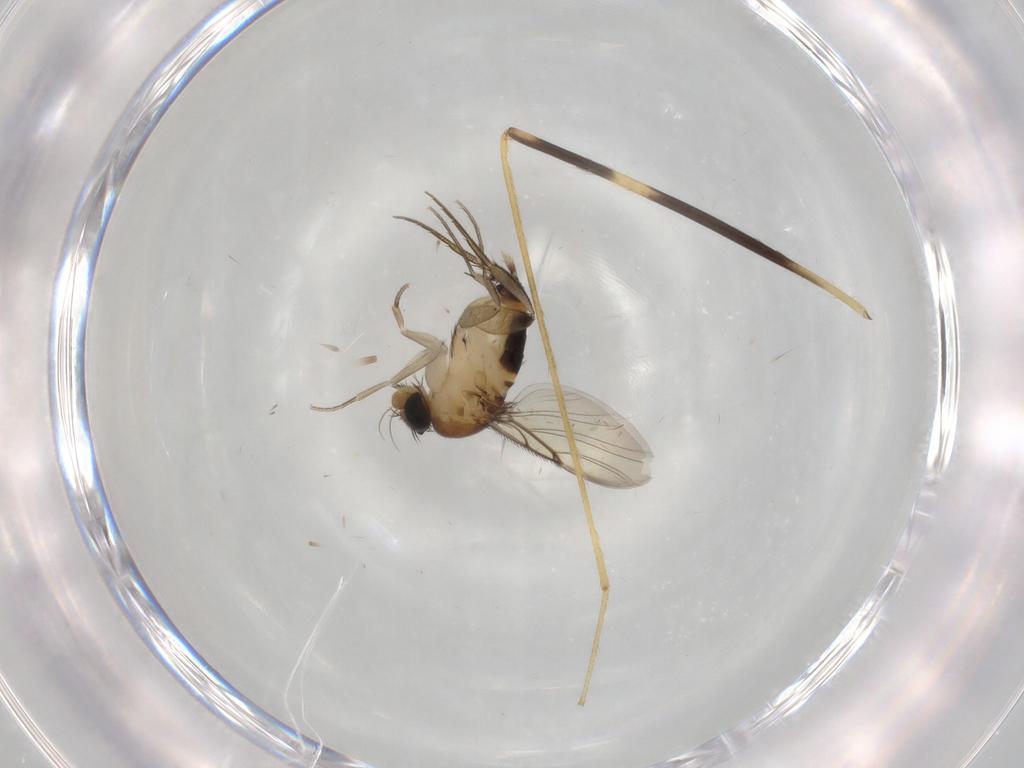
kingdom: Animalia
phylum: Arthropoda
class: Insecta
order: Diptera
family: Phoridae
